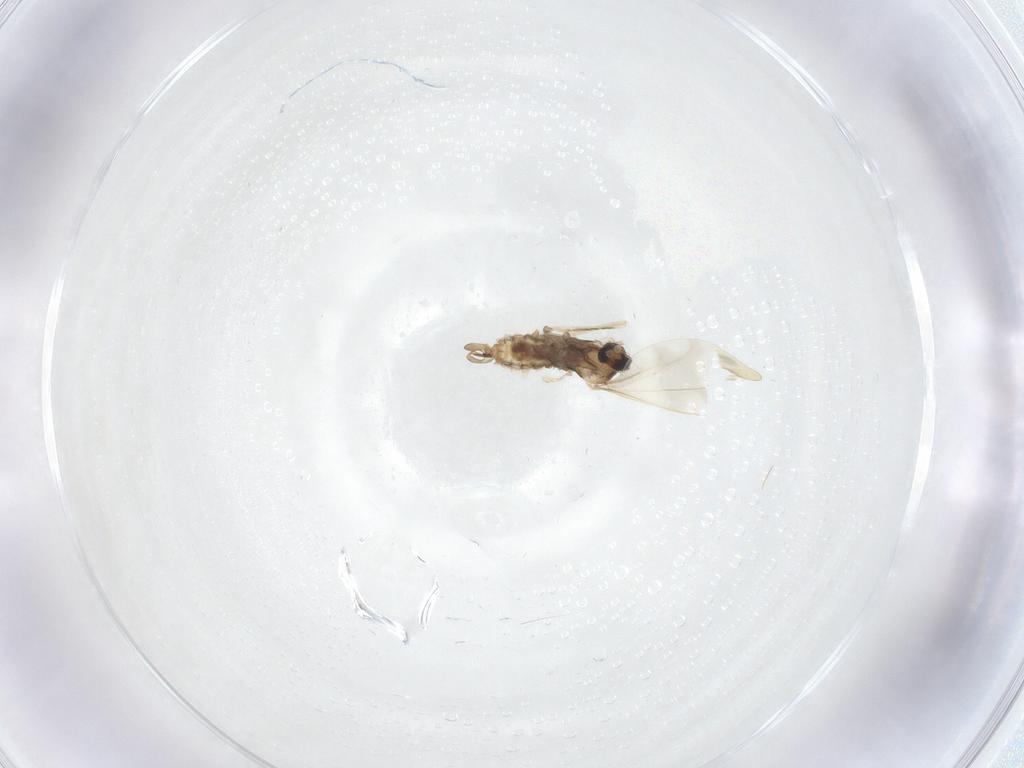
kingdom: Animalia
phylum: Arthropoda
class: Insecta
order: Diptera
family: Cecidomyiidae
